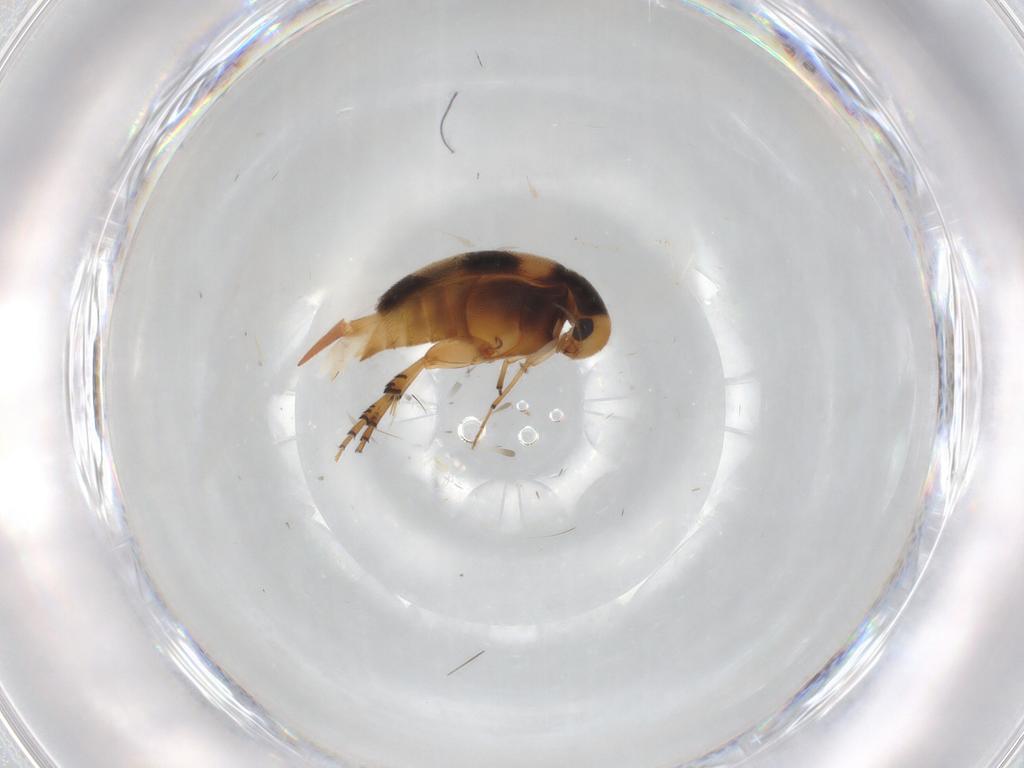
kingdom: Animalia
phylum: Arthropoda
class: Insecta
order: Coleoptera
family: Mordellidae
